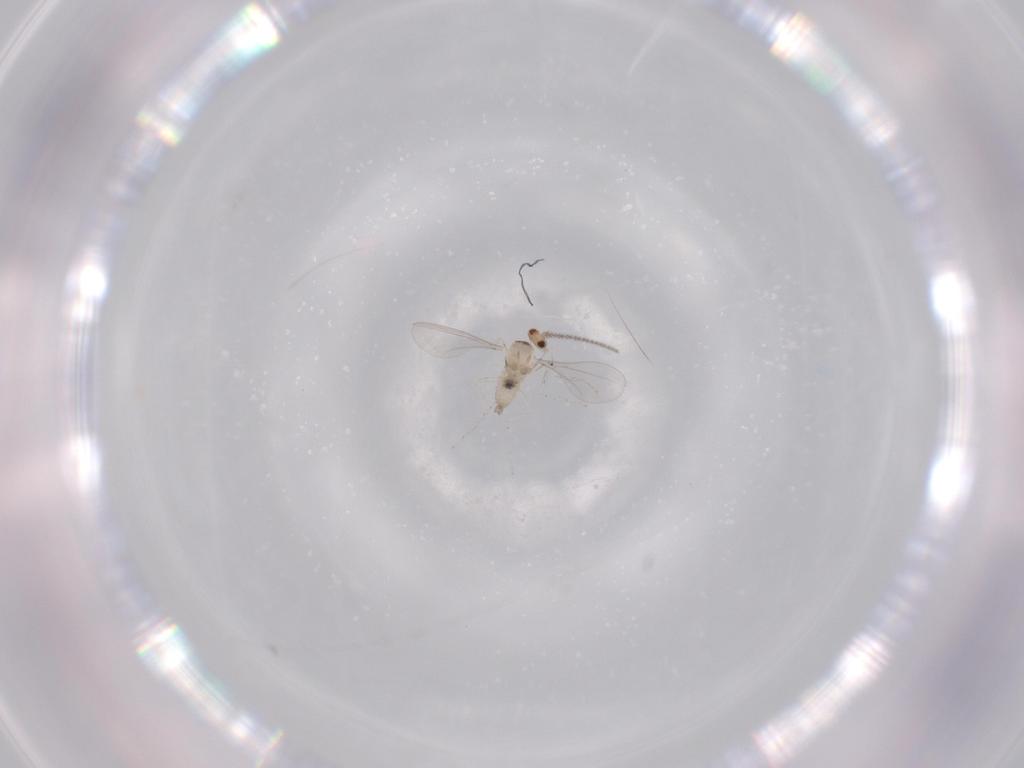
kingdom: Animalia
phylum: Arthropoda
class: Insecta
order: Diptera
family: Cecidomyiidae
